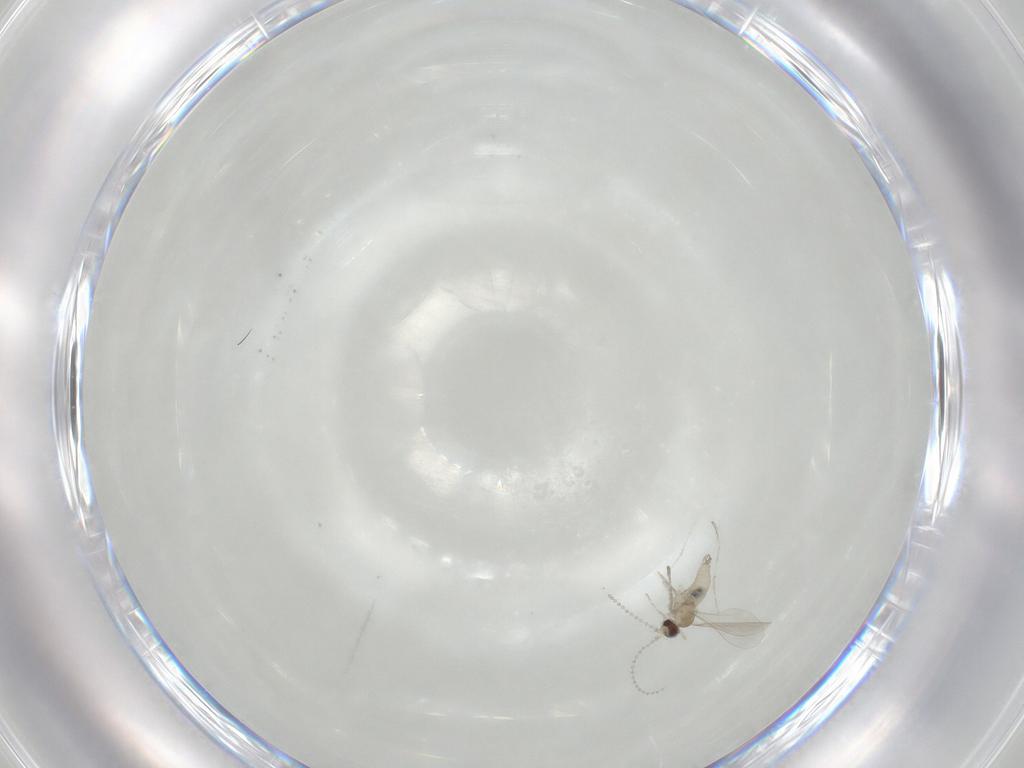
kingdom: Animalia
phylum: Arthropoda
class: Insecta
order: Diptera
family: Cecidomyiidae
